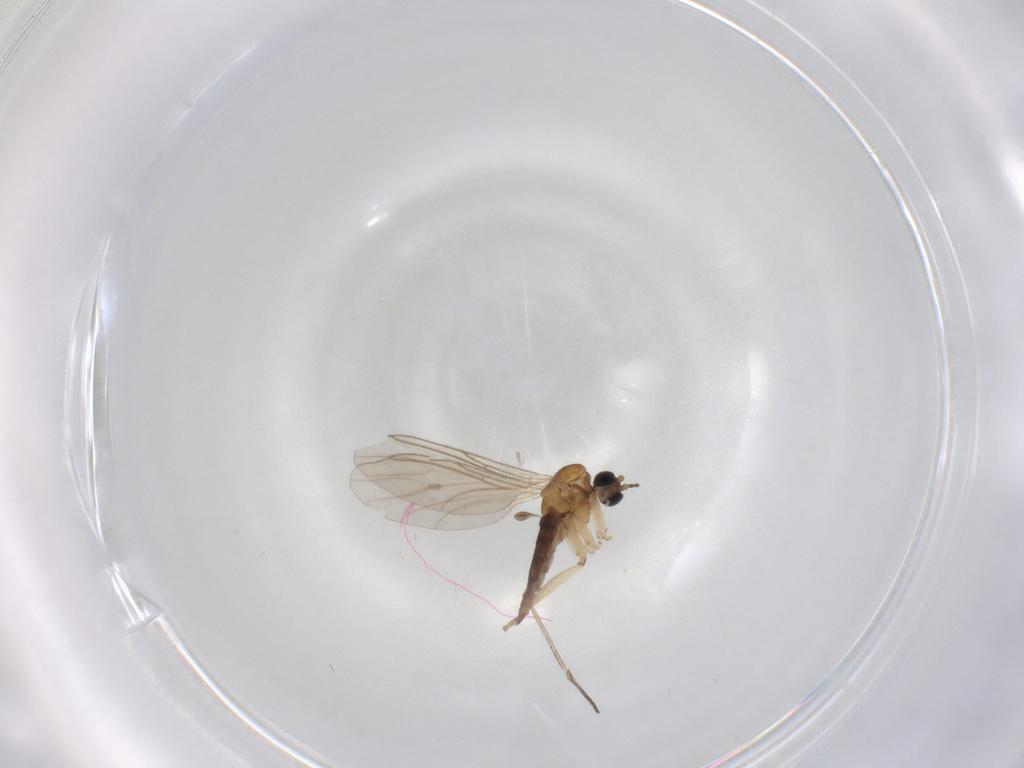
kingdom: Animalia
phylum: Arthropoda
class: Insecta
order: Diptera
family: Sciaridae
